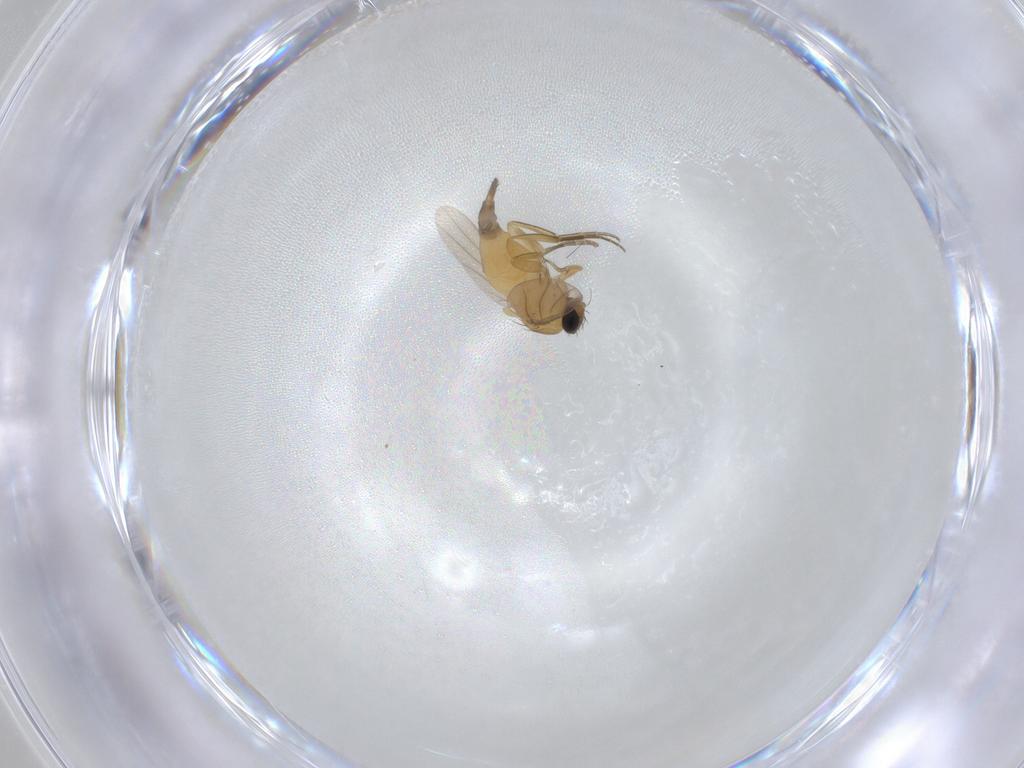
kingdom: Animalia
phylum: Arthropoda
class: Insecta
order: Diptera
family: Phoridae
